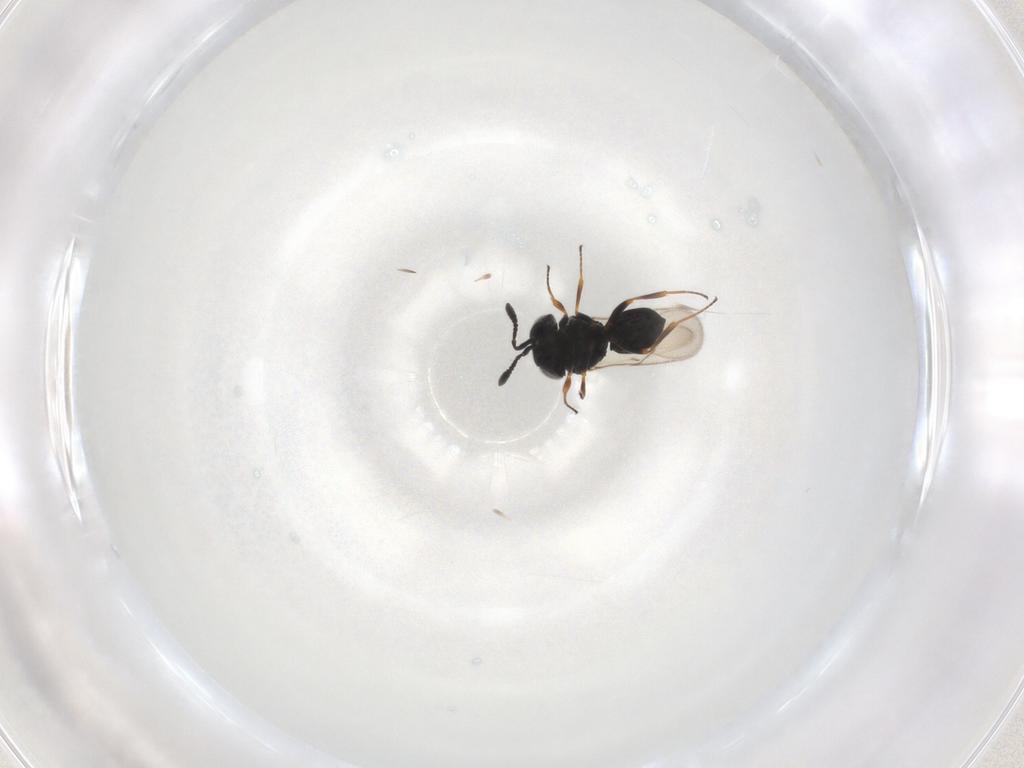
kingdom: Animalia
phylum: Arthropoda
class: Insecta
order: Hymenoptera
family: Scelionidae
